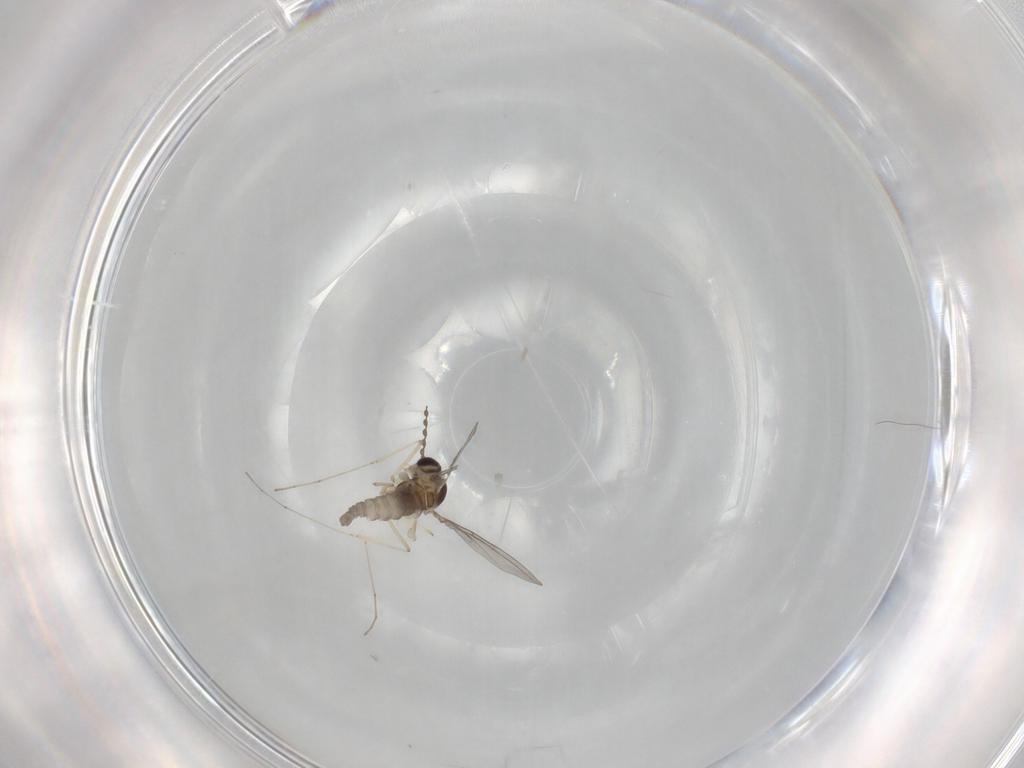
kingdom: Animalia
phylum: Arthropoda
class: Insecta
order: Diptera
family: Cecidomyiidae
